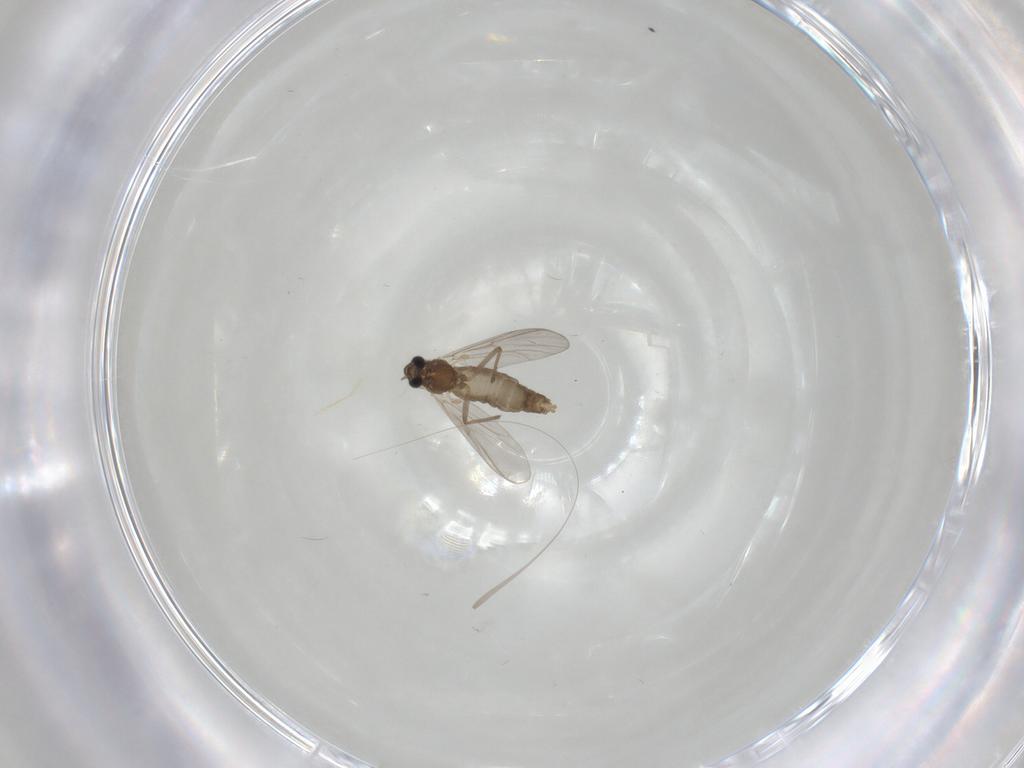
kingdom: Animalia
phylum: Arthropoda
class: Insecta
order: Diptera
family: Chironomidae
